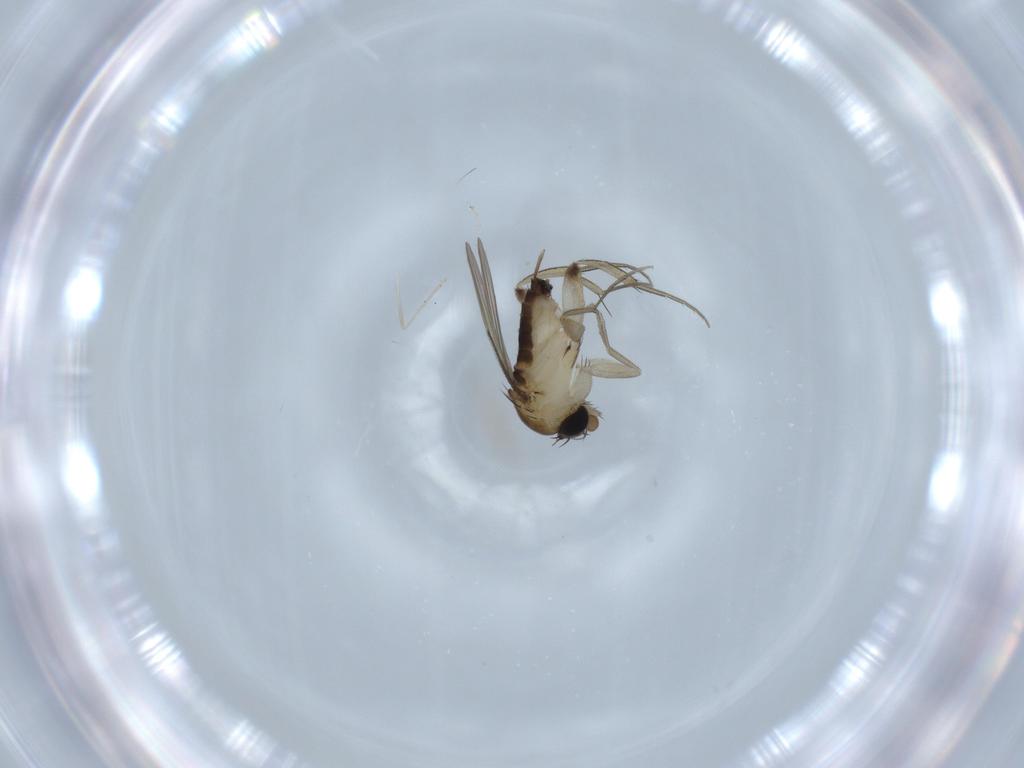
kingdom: Animalia
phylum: Arthropoda
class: Insecta
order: Diptera
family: Phoridae
